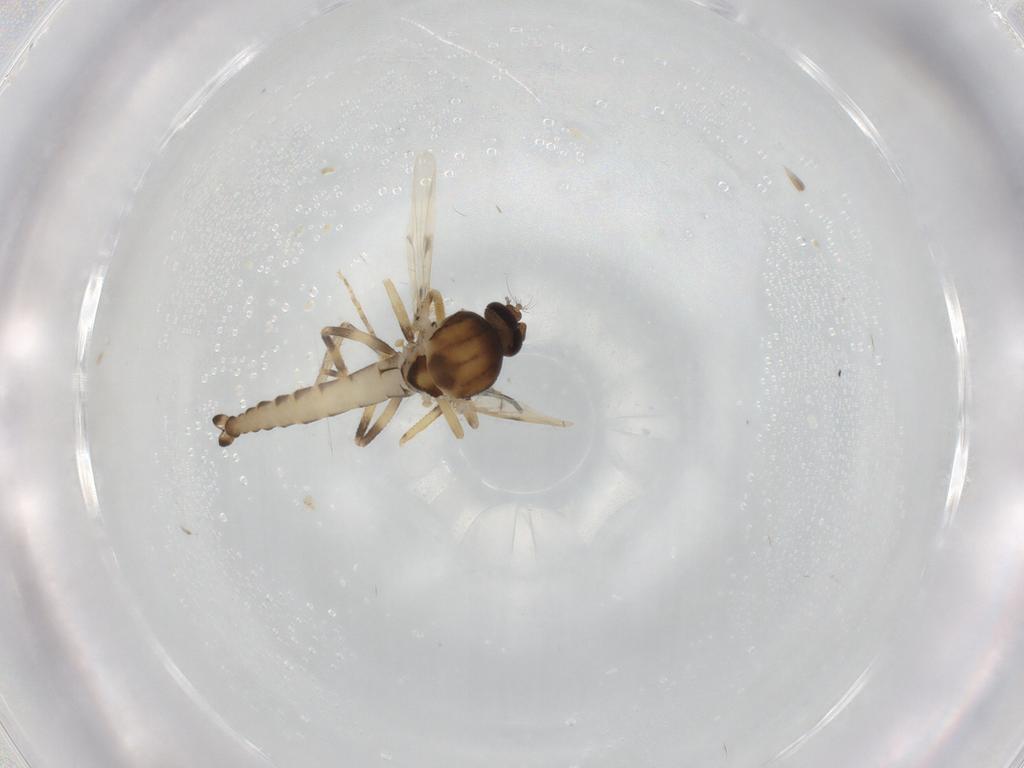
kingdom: Animalia
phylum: Arthropoda
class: Insecta
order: Diptera
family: Ceratopogonidae
